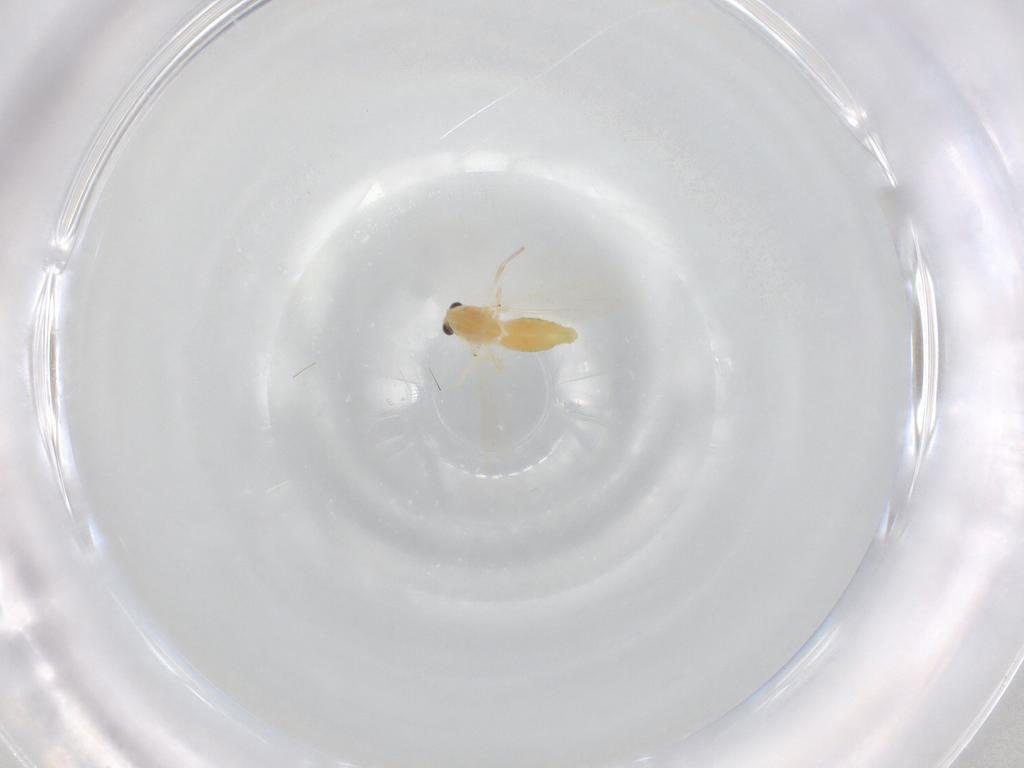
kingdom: Animalia
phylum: Arthropoda
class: Insecta
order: Diptera
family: Chironomidae
